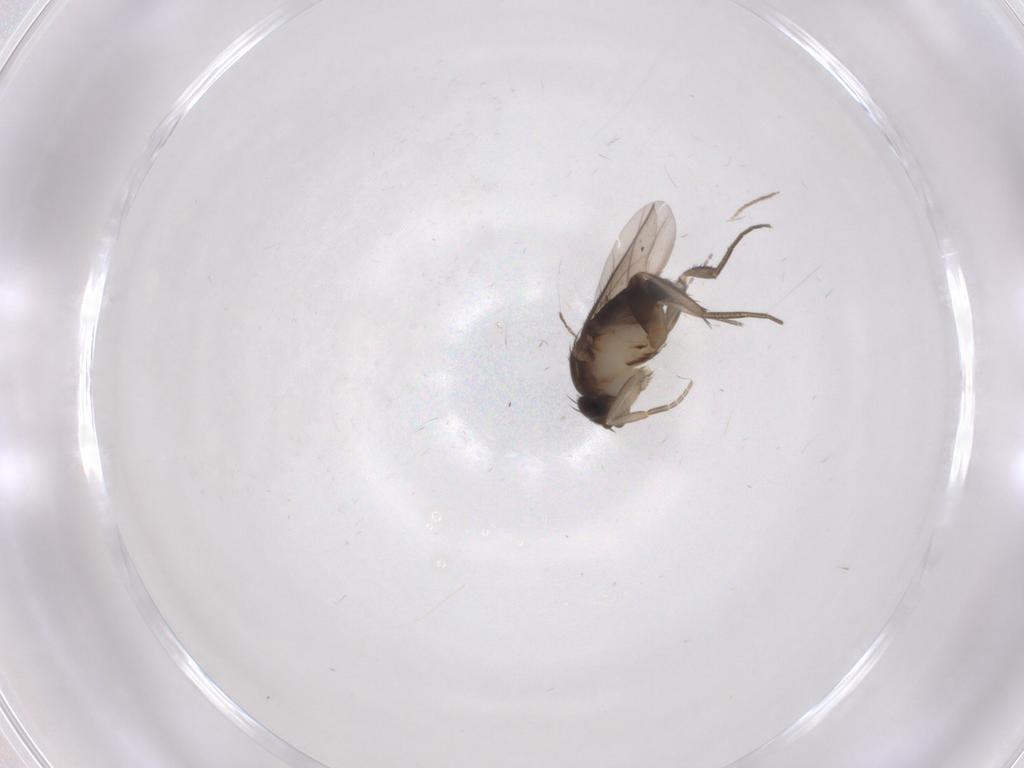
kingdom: Animalia
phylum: Arthropoda
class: Insecta
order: Diptera
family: Phoridae
